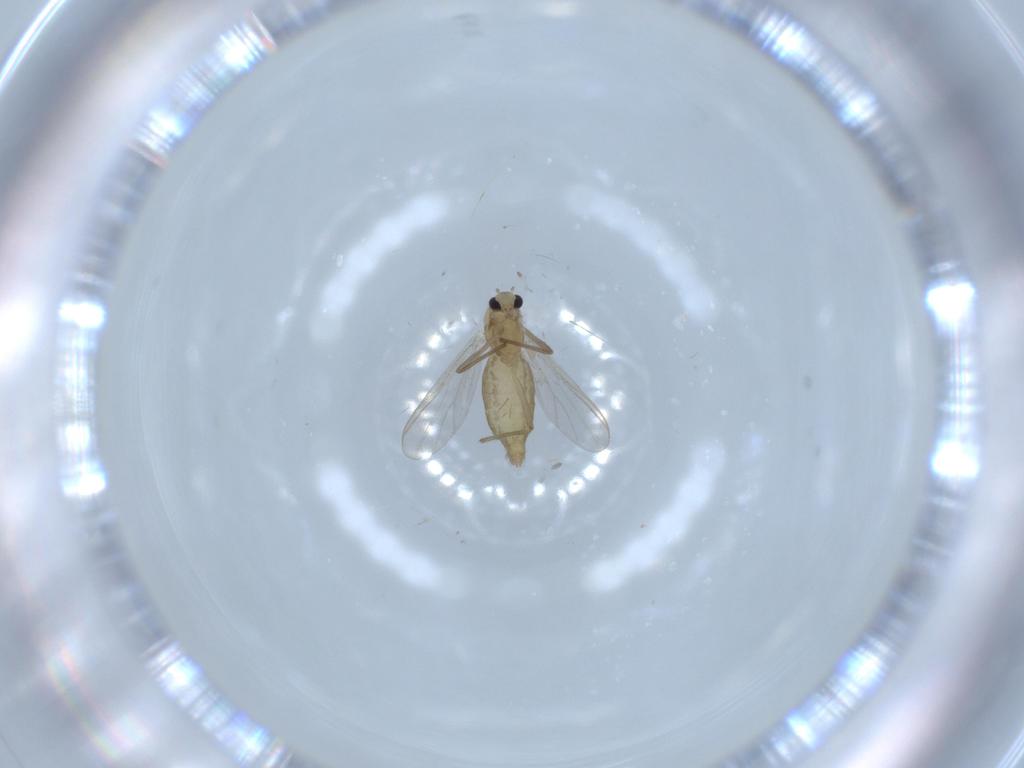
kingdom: Animalia
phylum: Arthropoda
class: Insecta
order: Diptera
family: Chironomidae
